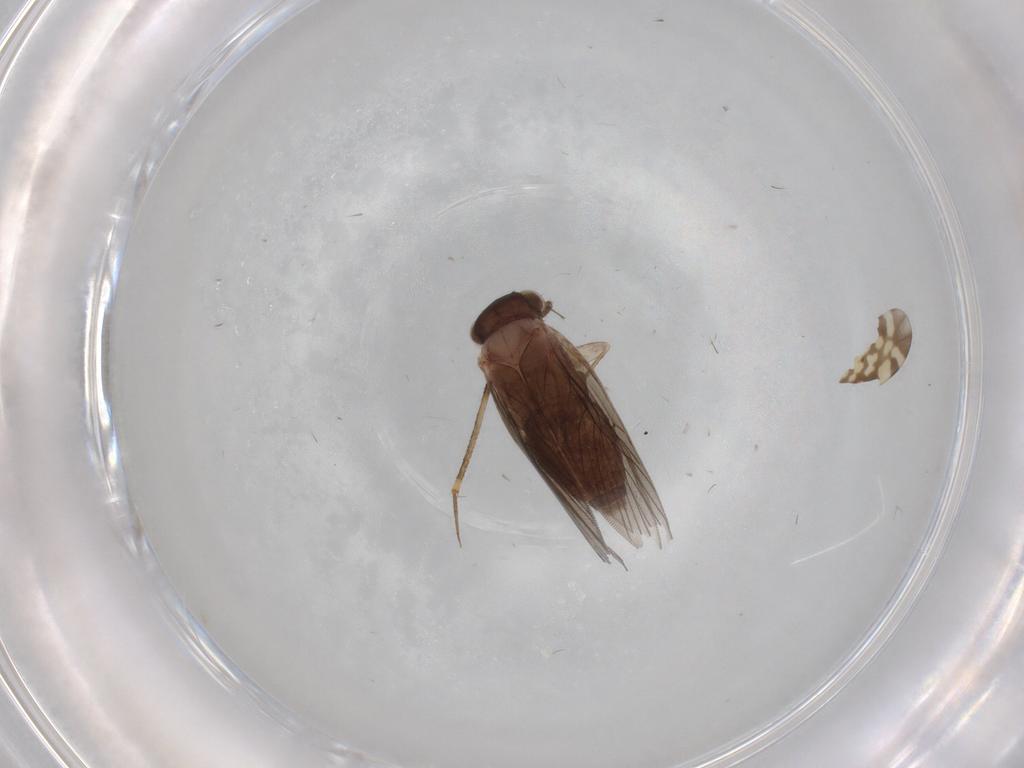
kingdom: Animalia
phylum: Arthropoda
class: Insecta
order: Psocodea
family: Lepidopsocidae
